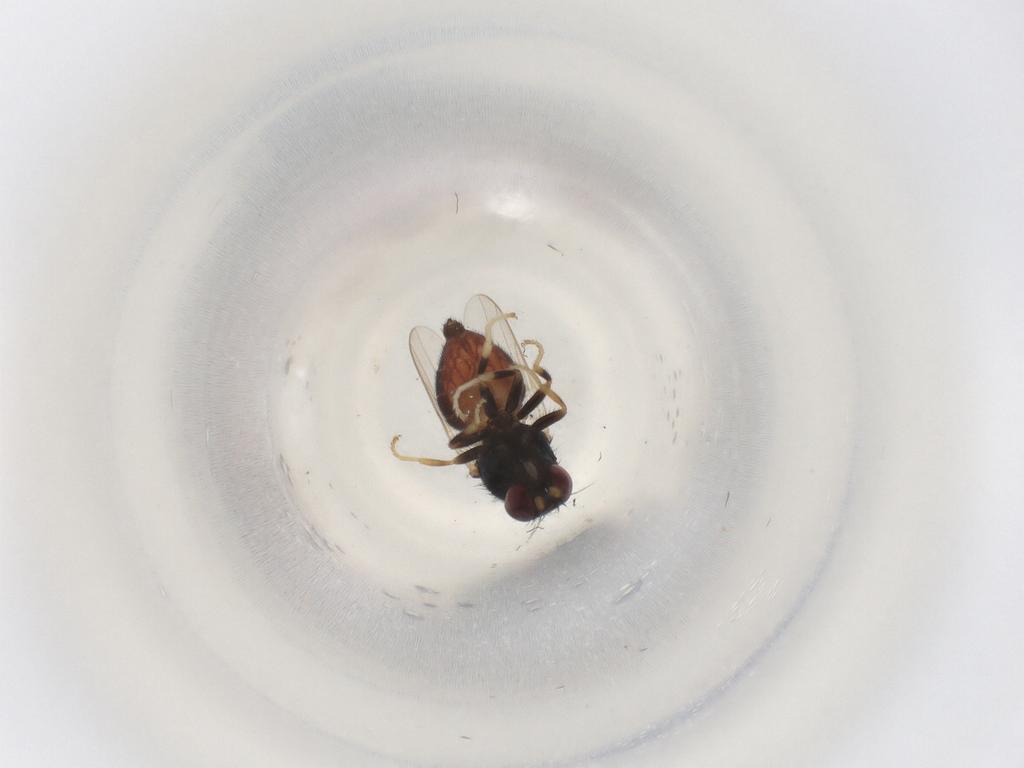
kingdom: Animalia
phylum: Arthropoda
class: Insecta
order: Diptera
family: Chloropidae
